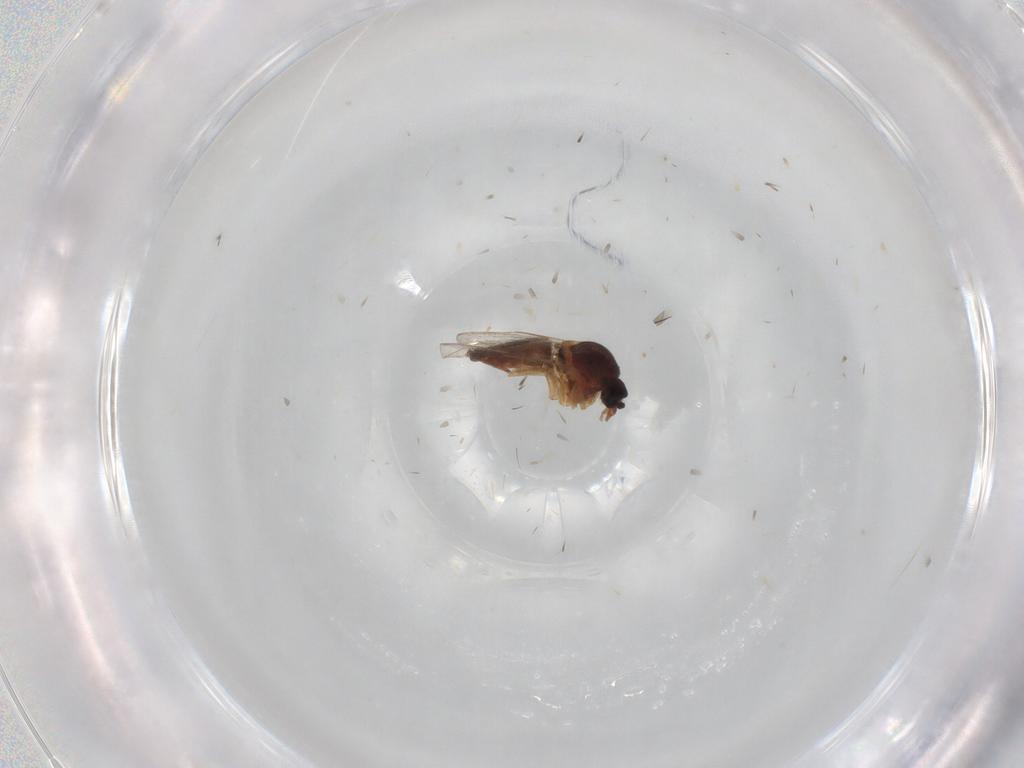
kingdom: Animalia
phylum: Arthropoda
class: Insecta
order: Diptera
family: Ceratopogonidae
